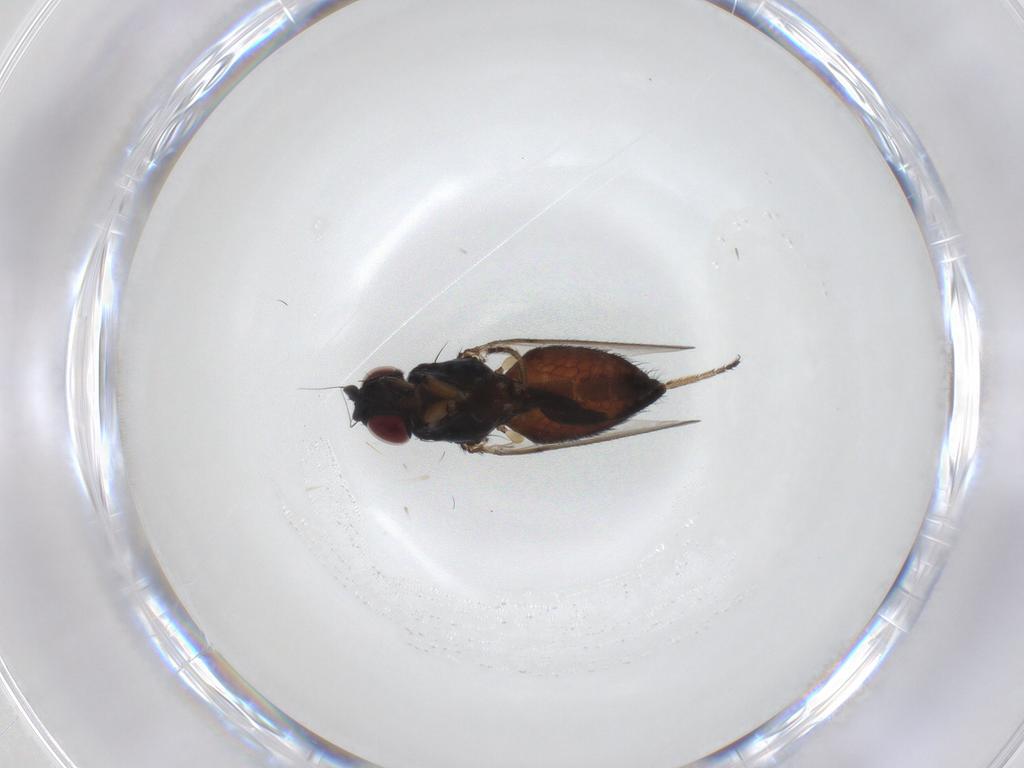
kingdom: Animalia
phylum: Arthropoda
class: Insecta
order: Diptera
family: Milichiidae
